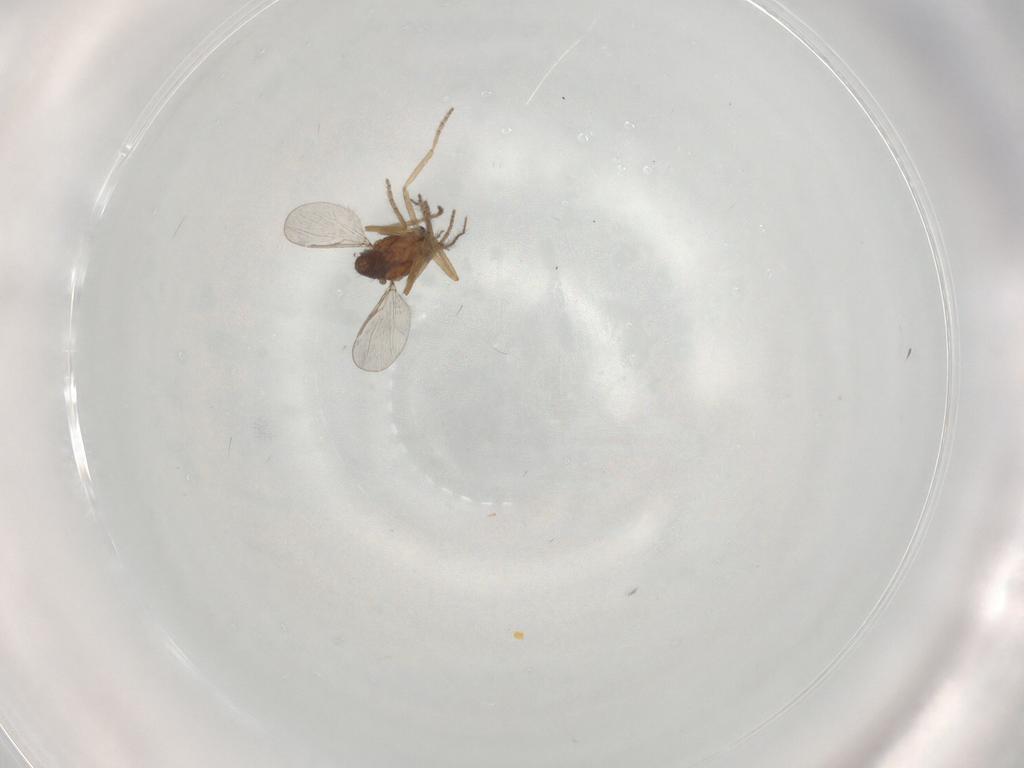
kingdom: Animalia
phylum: Arthropoda
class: Insecta
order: Diptera
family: Ceratopogonidae
